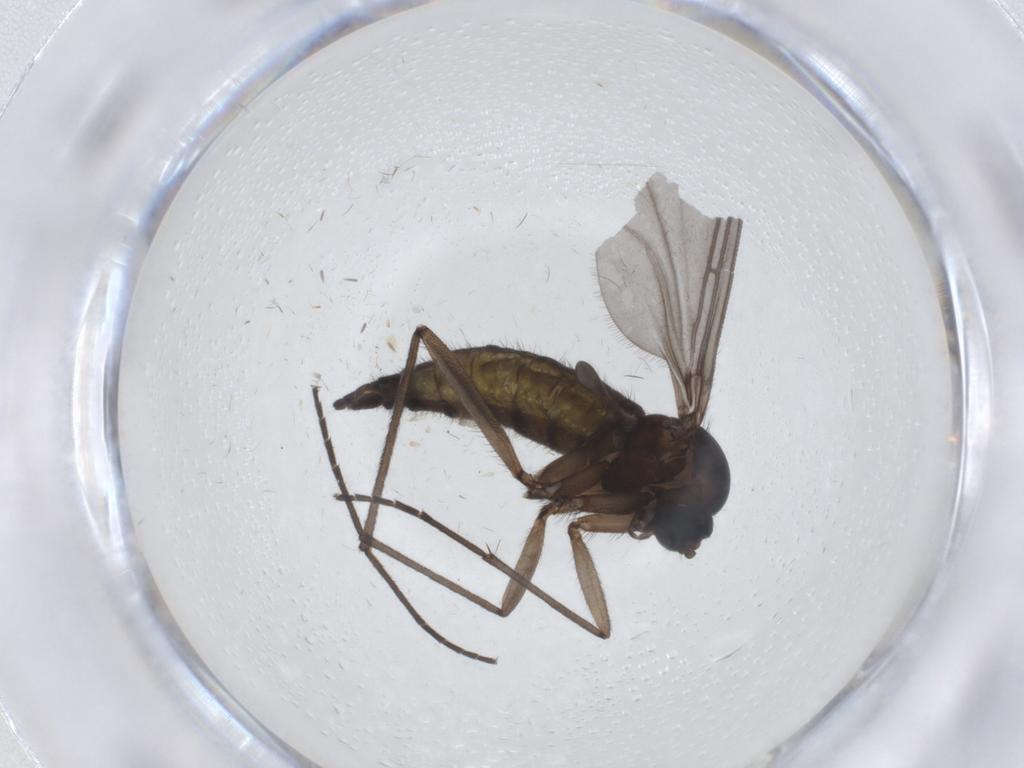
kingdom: Animalia
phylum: Arthropoda
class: Insecta
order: Diptera
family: Sciaridae
